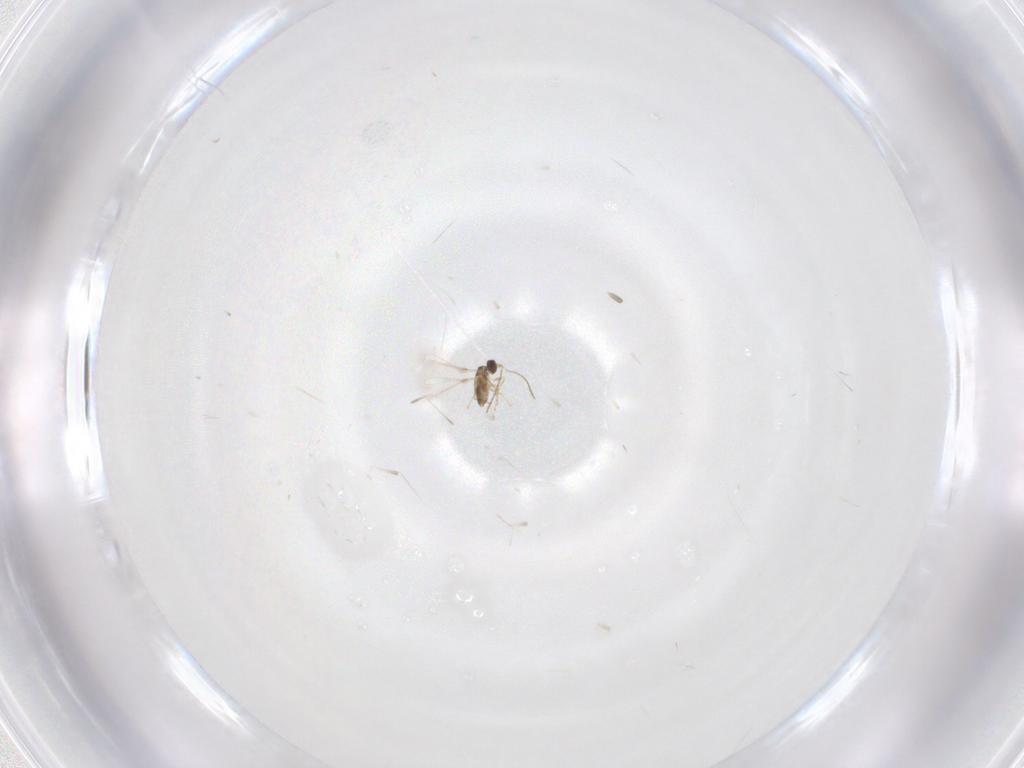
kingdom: Animalia
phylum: Arthropoda
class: Insecta
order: Hymenoptera
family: Mymaridae
